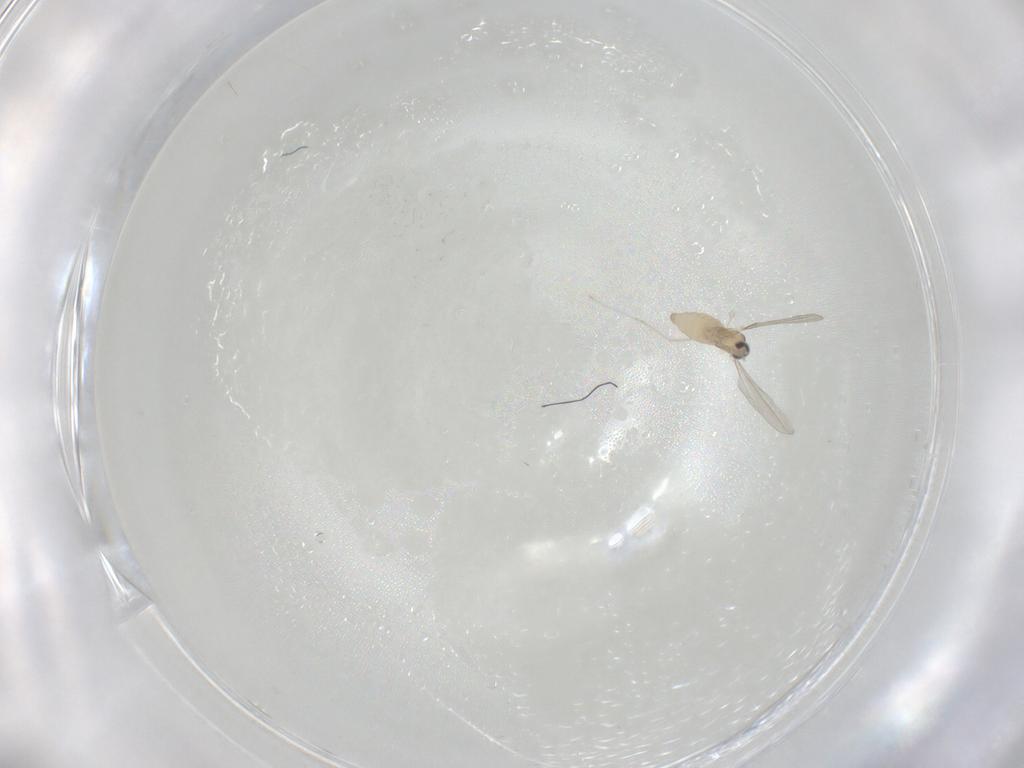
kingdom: Animalia
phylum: Arthropoda
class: Insecta
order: Diptera
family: Cecidomyiidae
